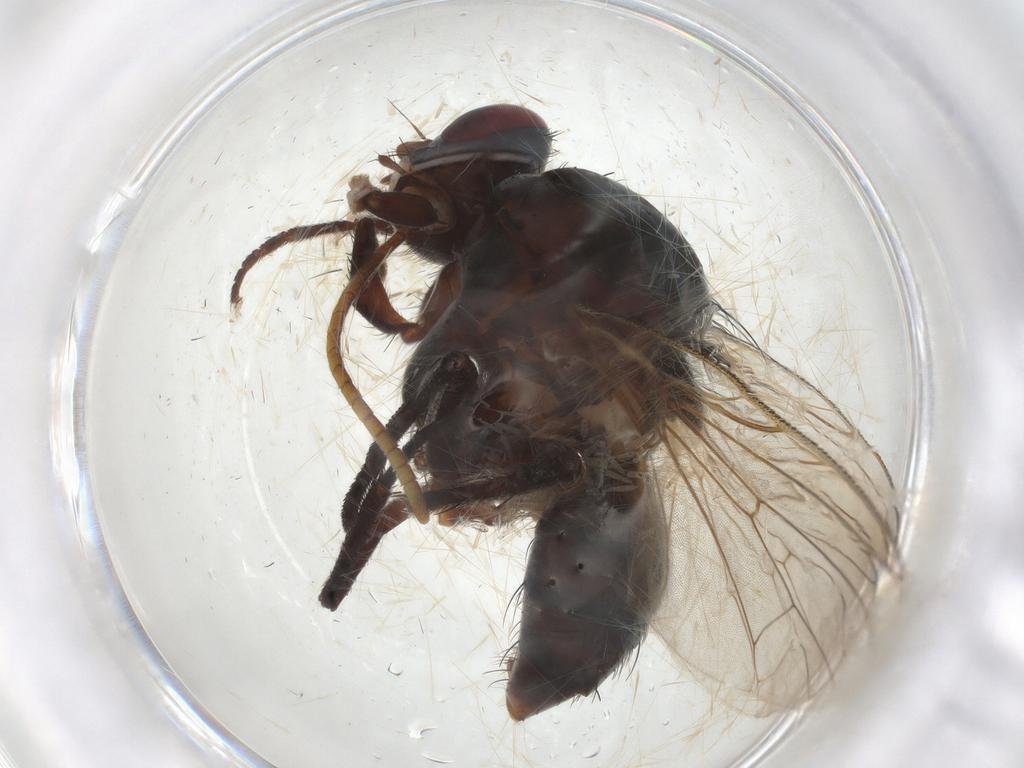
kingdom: Animalia
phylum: Arthropoda
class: Insecta
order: Diptera
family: Anthomyiidae
